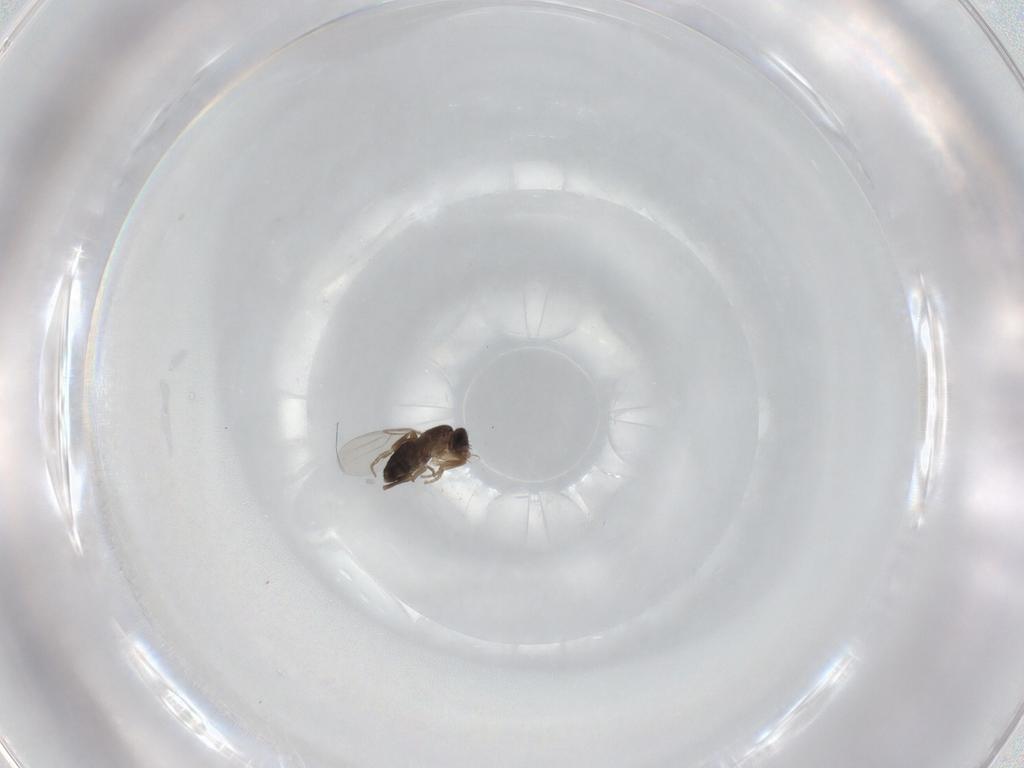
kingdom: Animalia
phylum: Arthropoda
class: Insecta
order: Diptera
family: Phoridae
